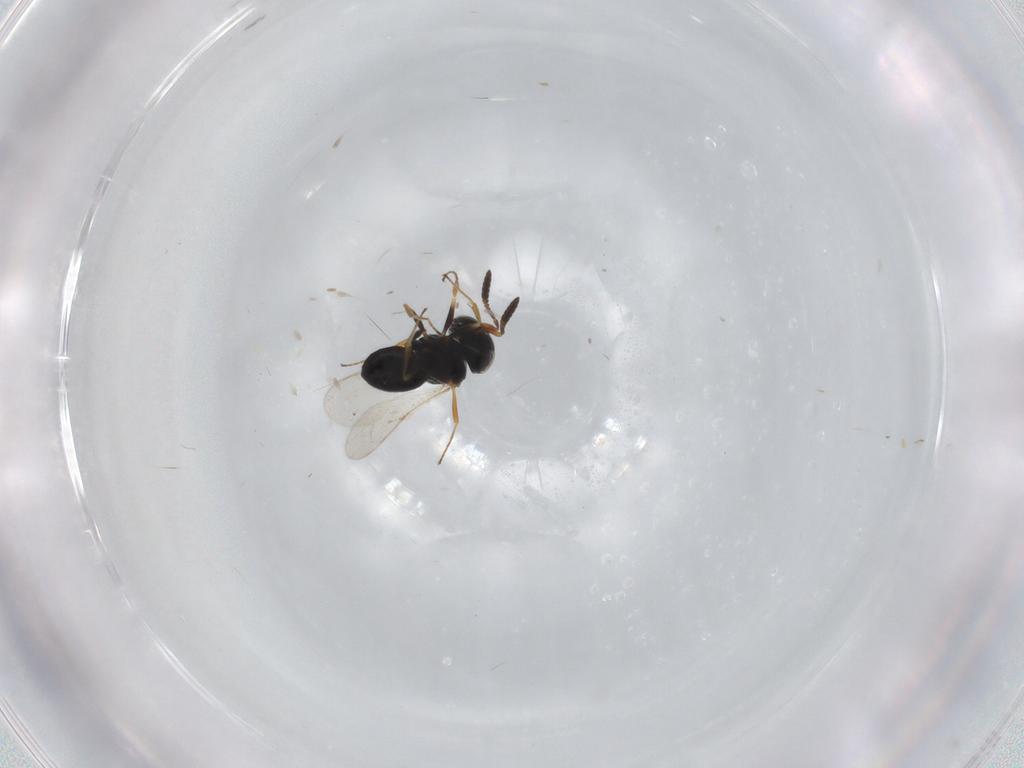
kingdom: Animalia
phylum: Arthropoda
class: Insecta
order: Coleoptera
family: Curculionidae
